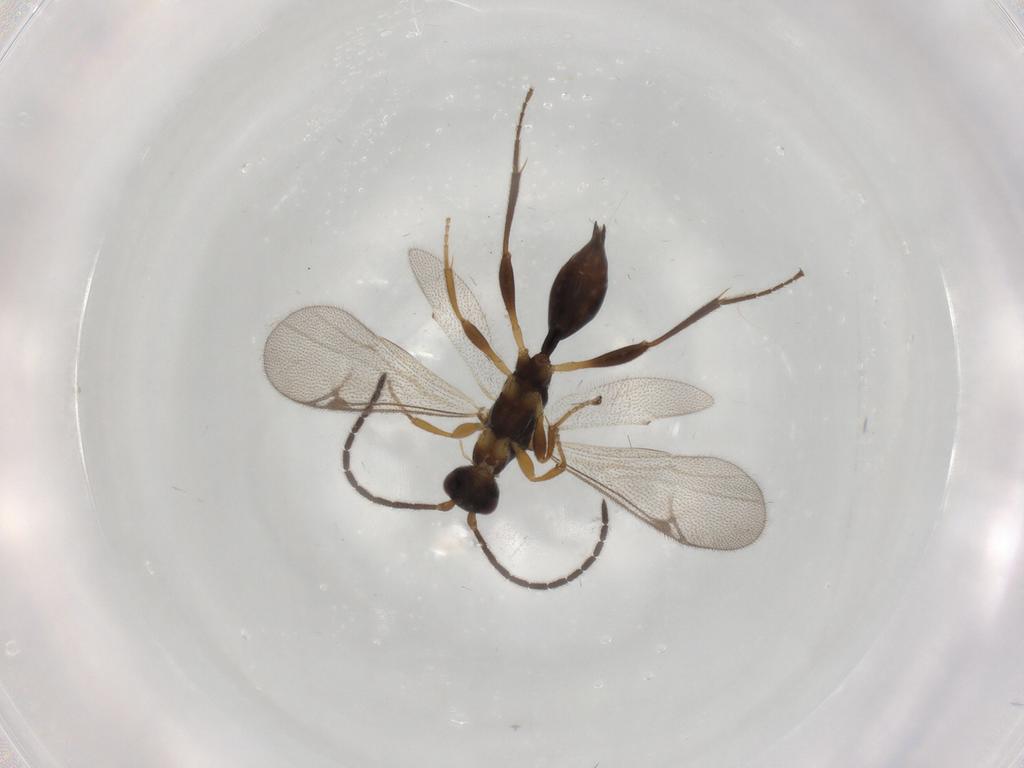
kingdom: Animalia
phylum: Arthropoda
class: Insecta
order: Hymenoptera
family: Proctotrupidae
